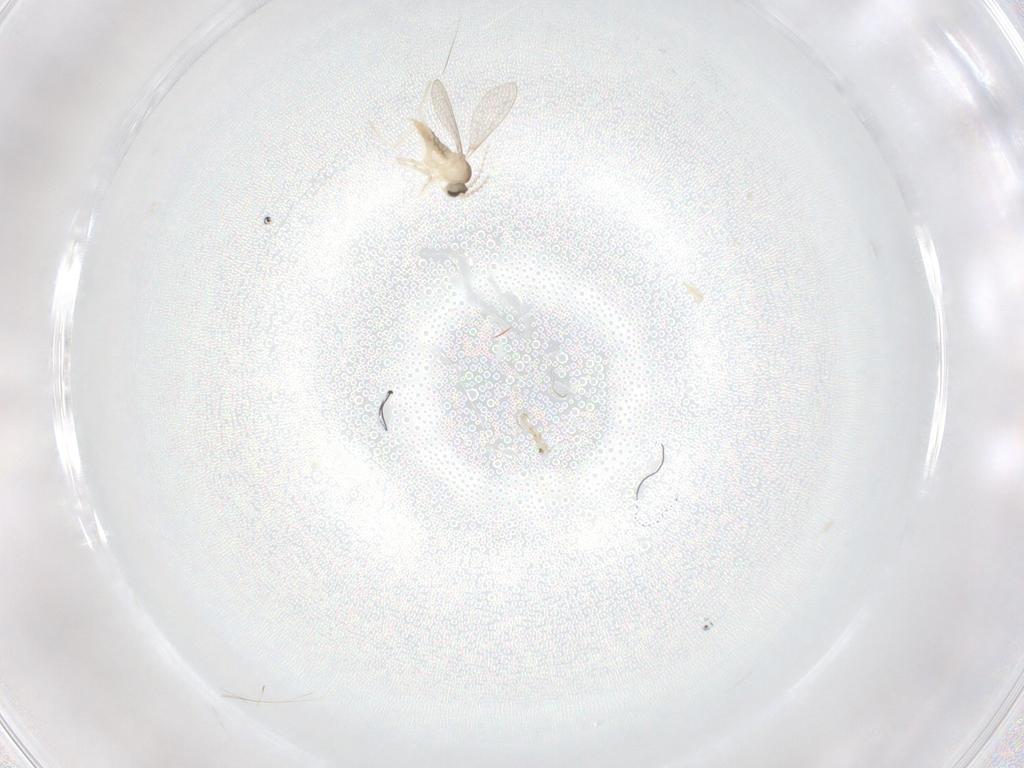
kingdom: Animalia
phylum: Arthropoda
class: Insecta
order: Diptera
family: Cecidomyiidae
